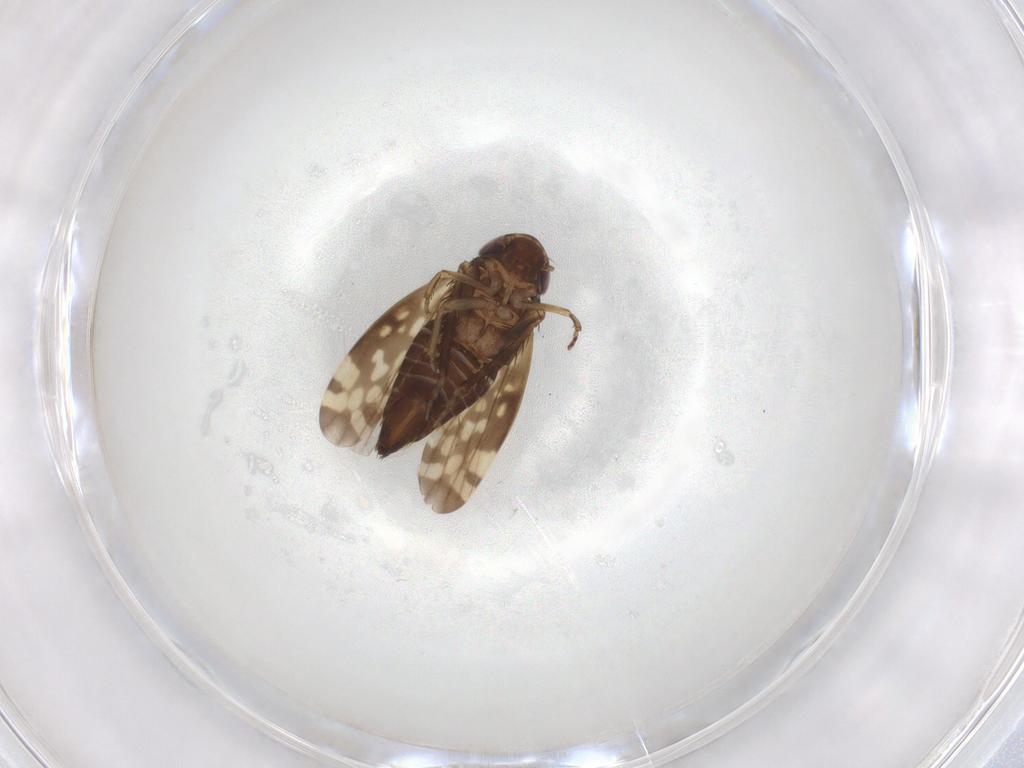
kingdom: Animalia
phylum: Arthropoda
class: Insecta
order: Hemiptera
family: Cicadellidae
